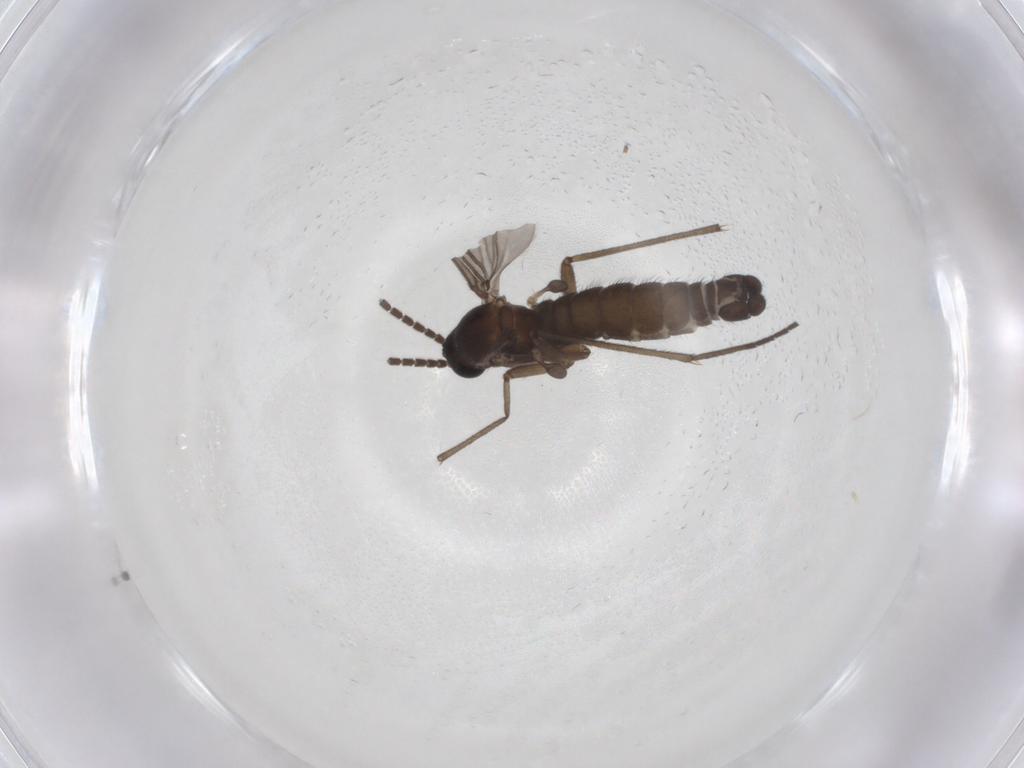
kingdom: Animalia
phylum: Arthropoda
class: Insecta
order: Diptera
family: Sciaridae
